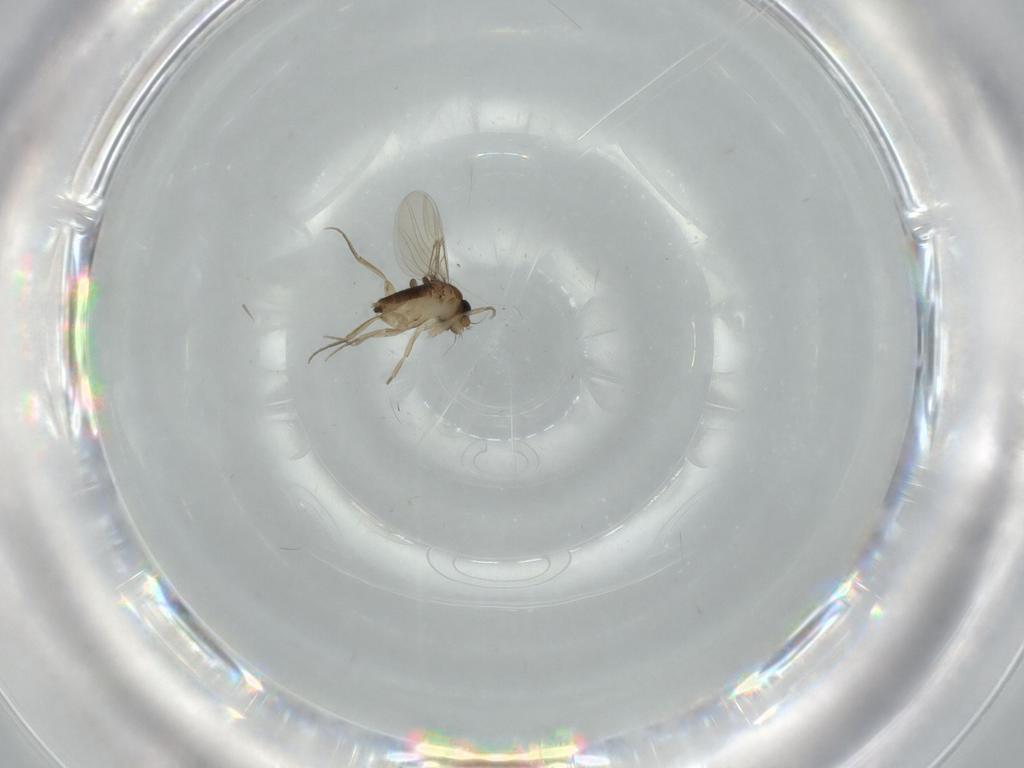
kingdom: Animalia
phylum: Arthropoda
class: Insecta
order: Diptera
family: Phoridae
